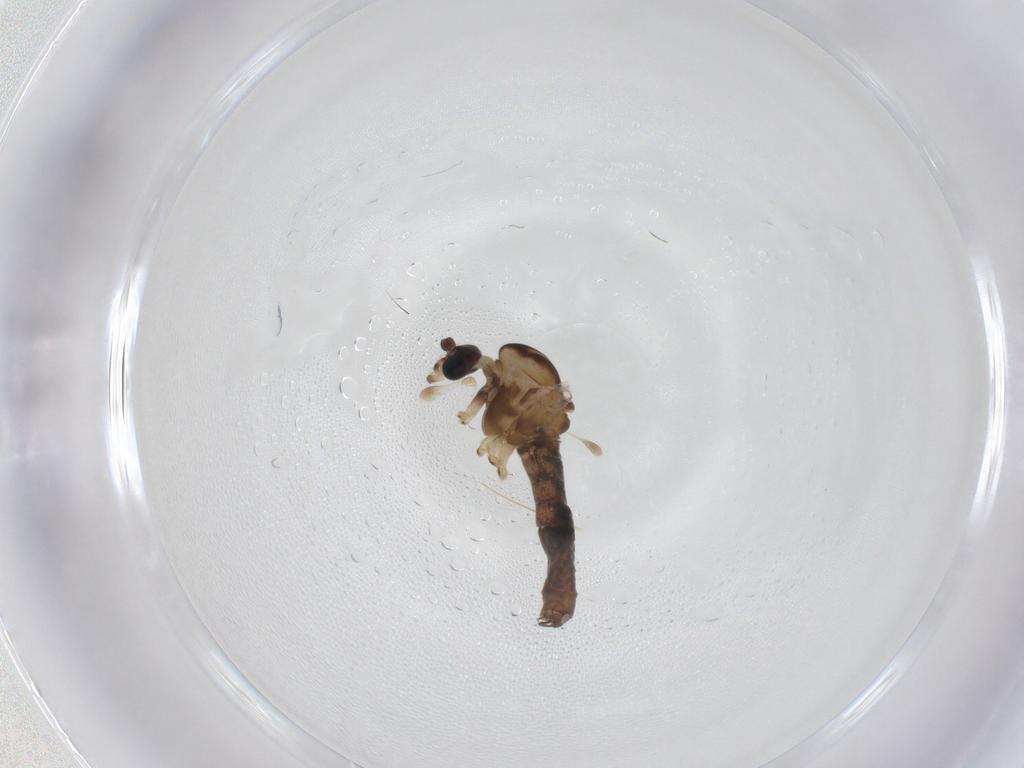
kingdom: Animalia
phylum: Arthropoda
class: Insecta
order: Diptera
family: Dixidae
